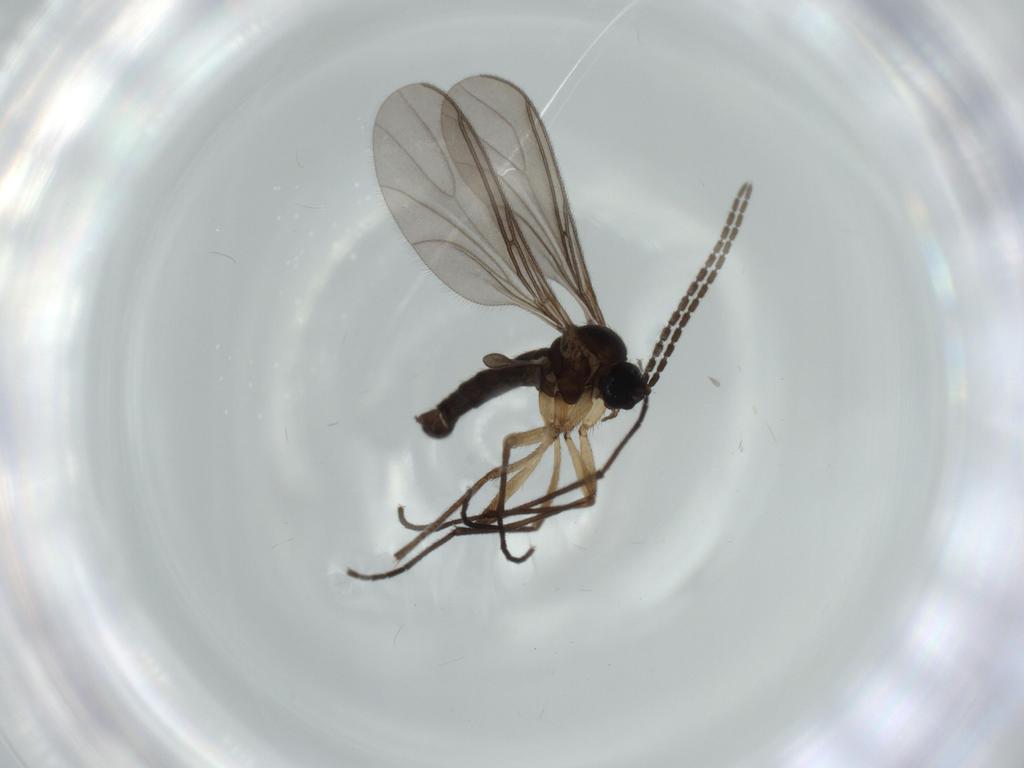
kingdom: Animalia
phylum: Arthropoda
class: Insecta
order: Diptera
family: Sciaridae
